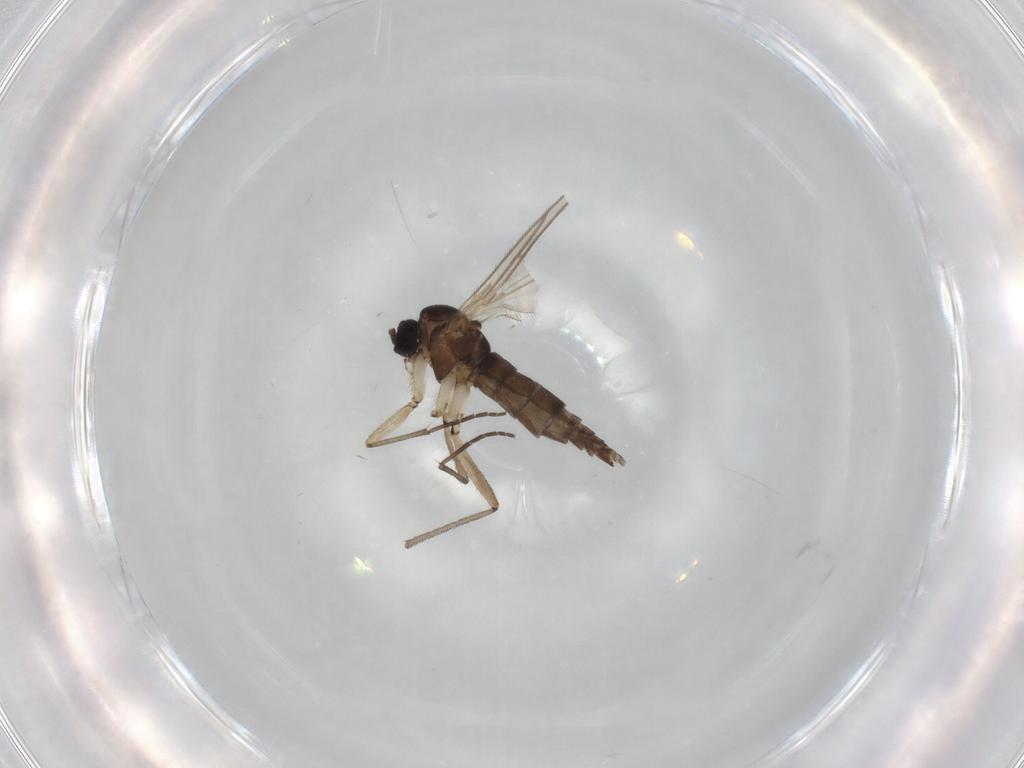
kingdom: Animalia
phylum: Arthropoda
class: Insecta
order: Diptera
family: Sciaridae
